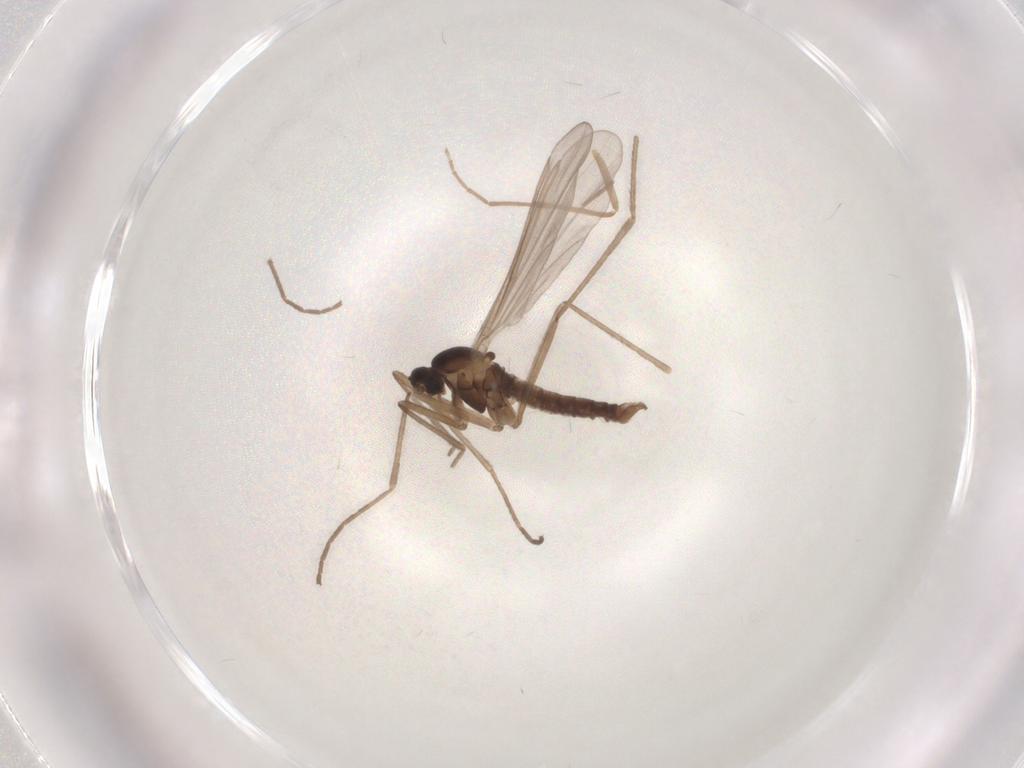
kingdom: Animalia
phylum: Arthropoda
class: Insecta
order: Diptera
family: Cecidomyiidae
